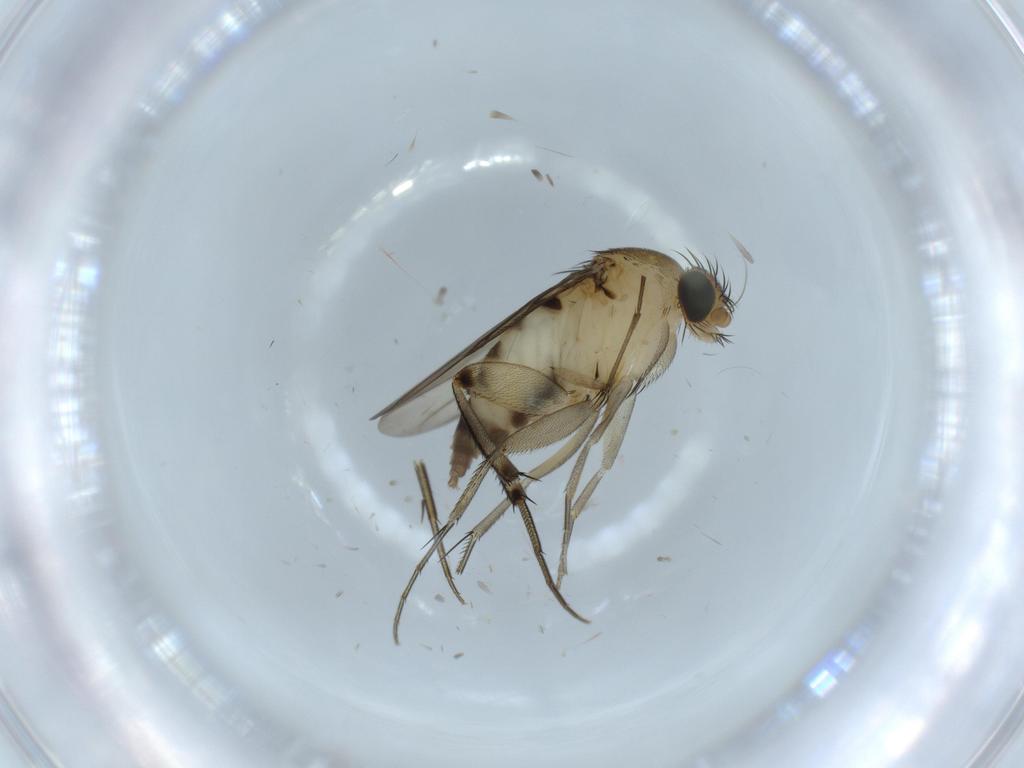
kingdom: Animalia
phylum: Arthropoda
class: Insecta
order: Diptera
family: Phoridae
